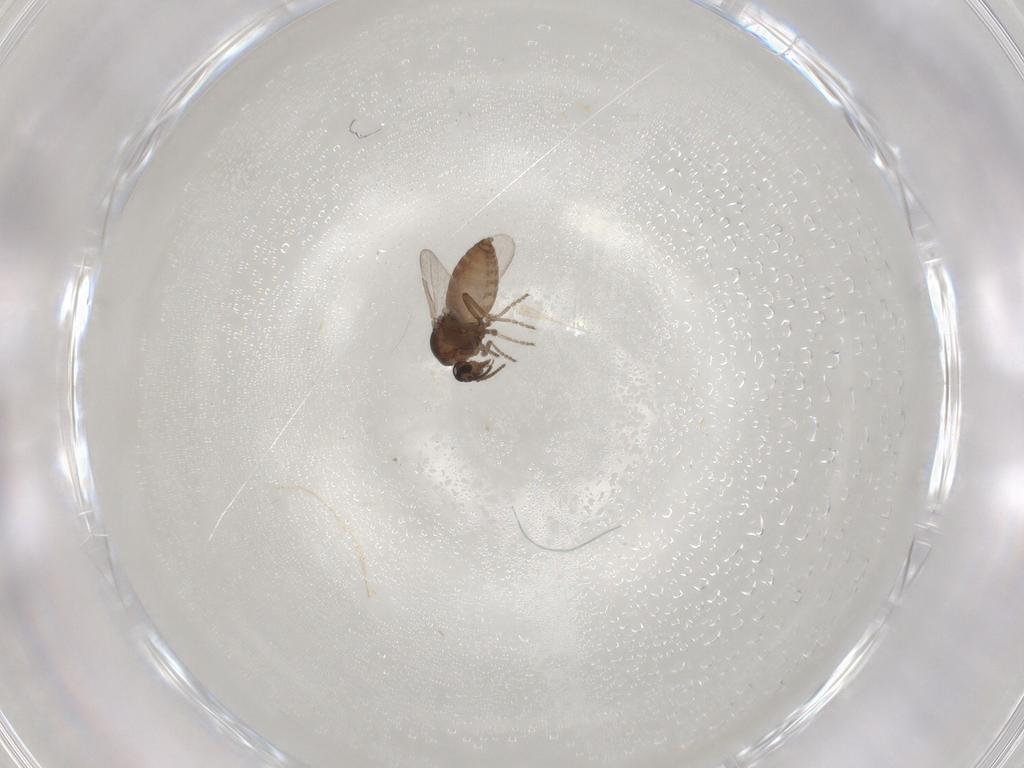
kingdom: Animalia
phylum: Arthropoda
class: Insecta
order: Diptera
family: Ceratopogonidae
